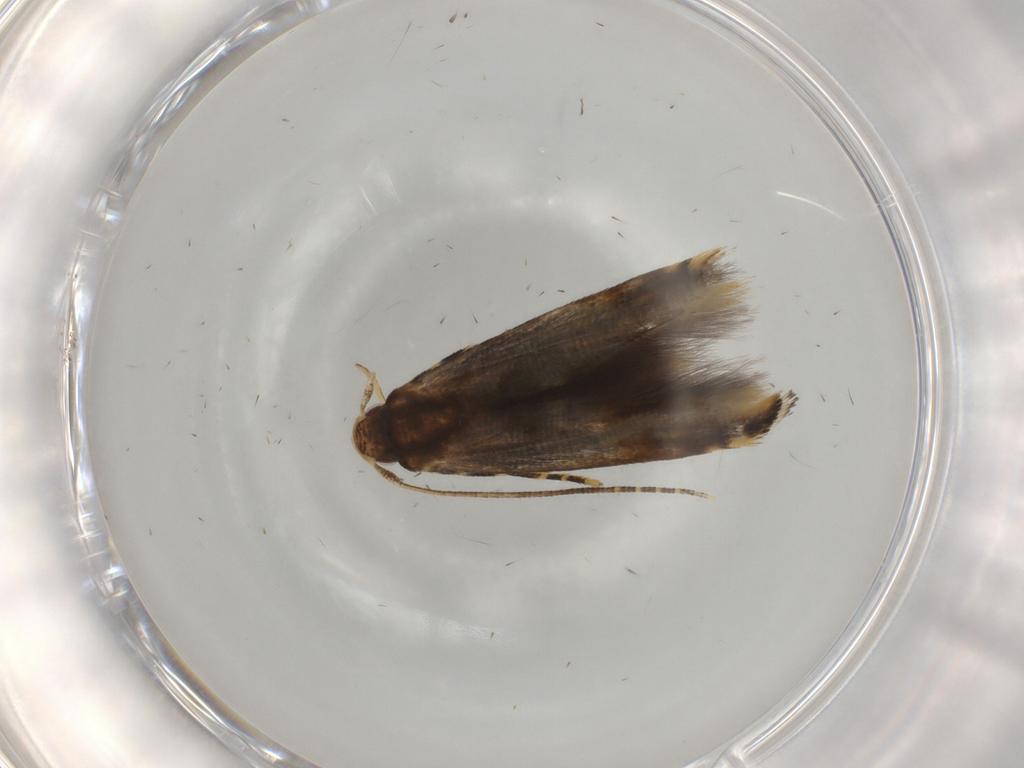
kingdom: Animalia
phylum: Arthropoda
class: Insecta
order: Lepidoptera
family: Momphidae
